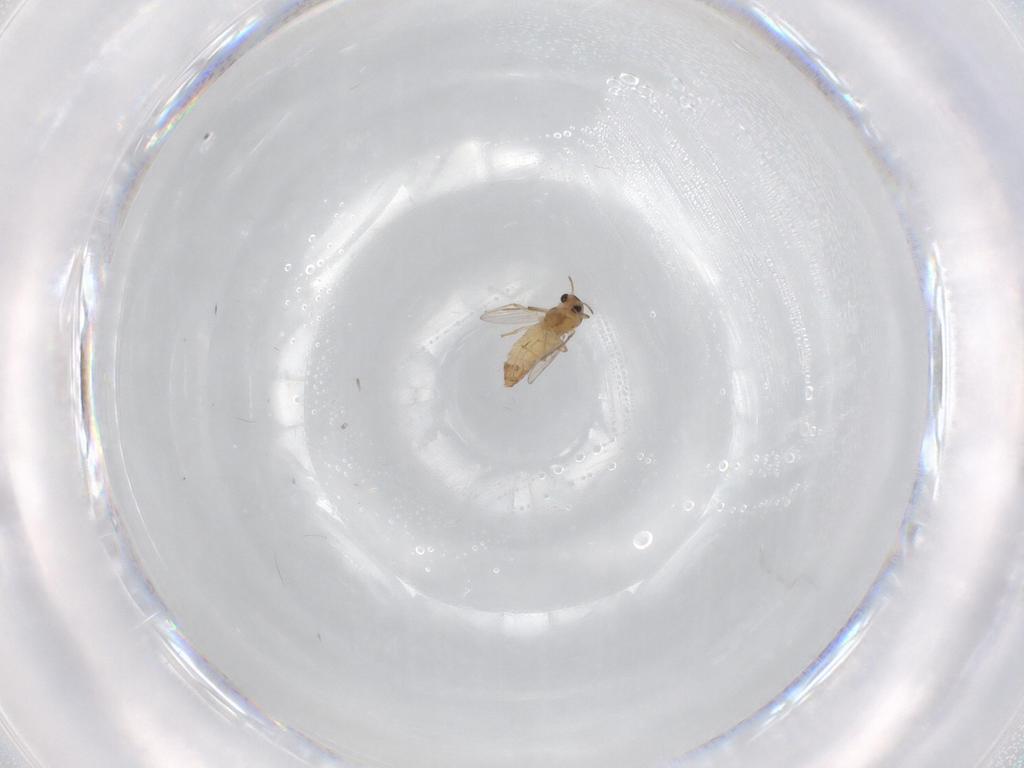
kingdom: Animalia
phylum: Arthropoda
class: Insecta
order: Diptera
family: Chironomidae
